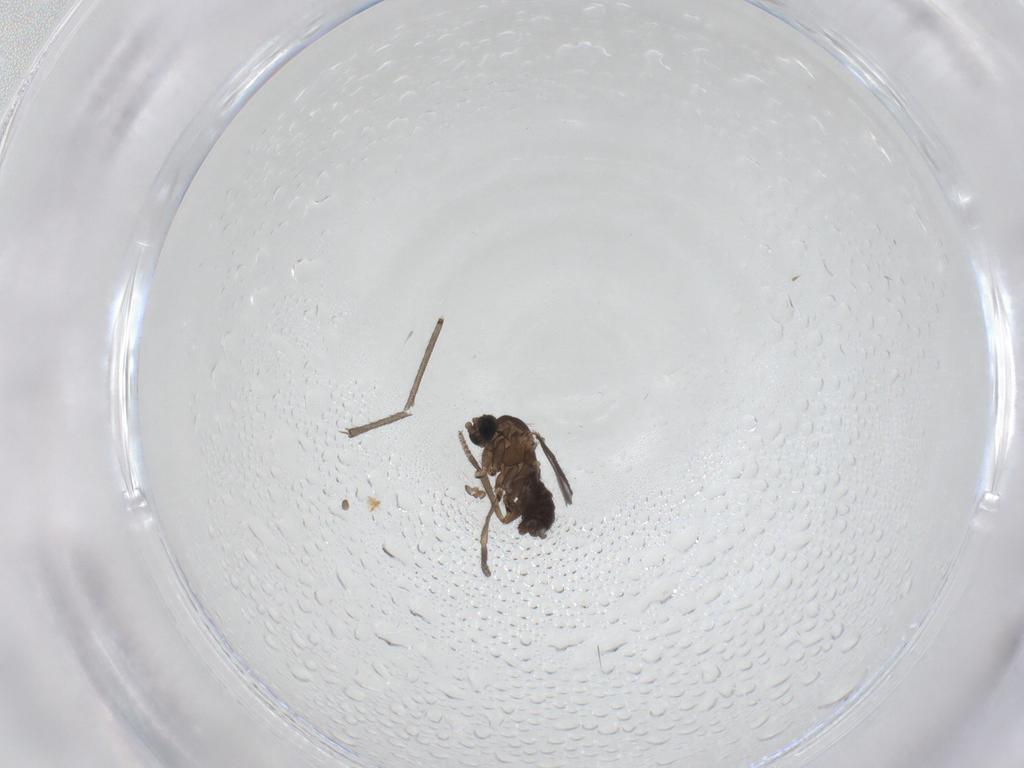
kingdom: Animalia
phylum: Arthropoda
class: Insecta
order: Diptera
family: Sciaridae
